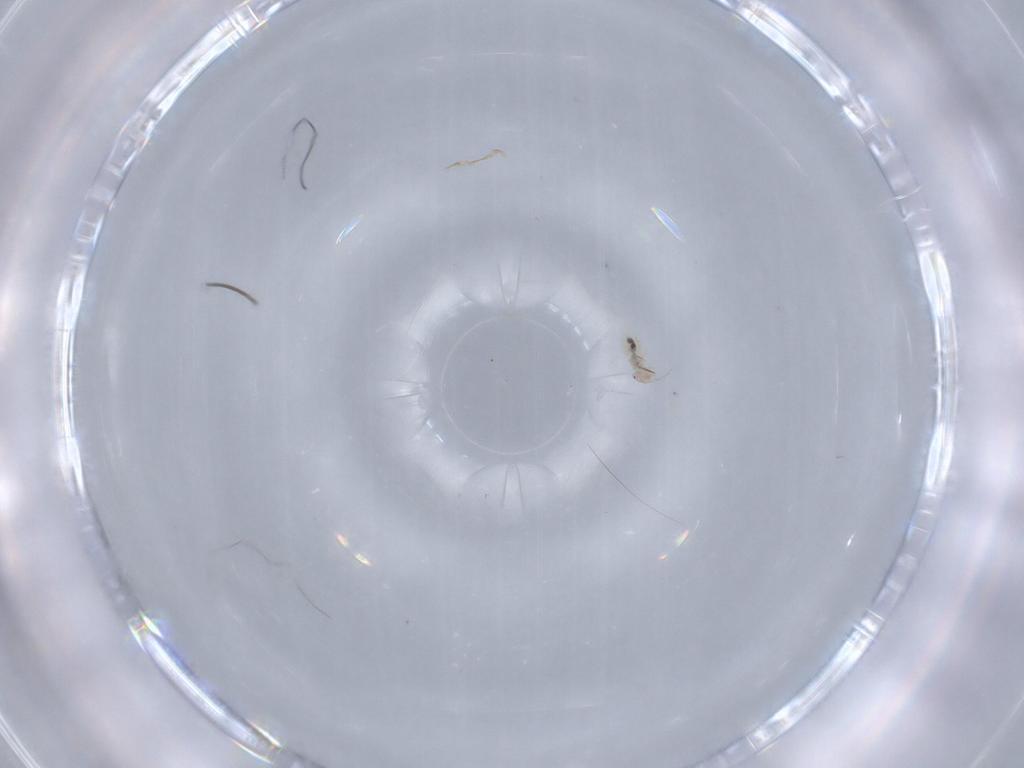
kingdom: Animalia
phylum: Arthropoda
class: Insecta
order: Psocodea
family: Liposcelididae
